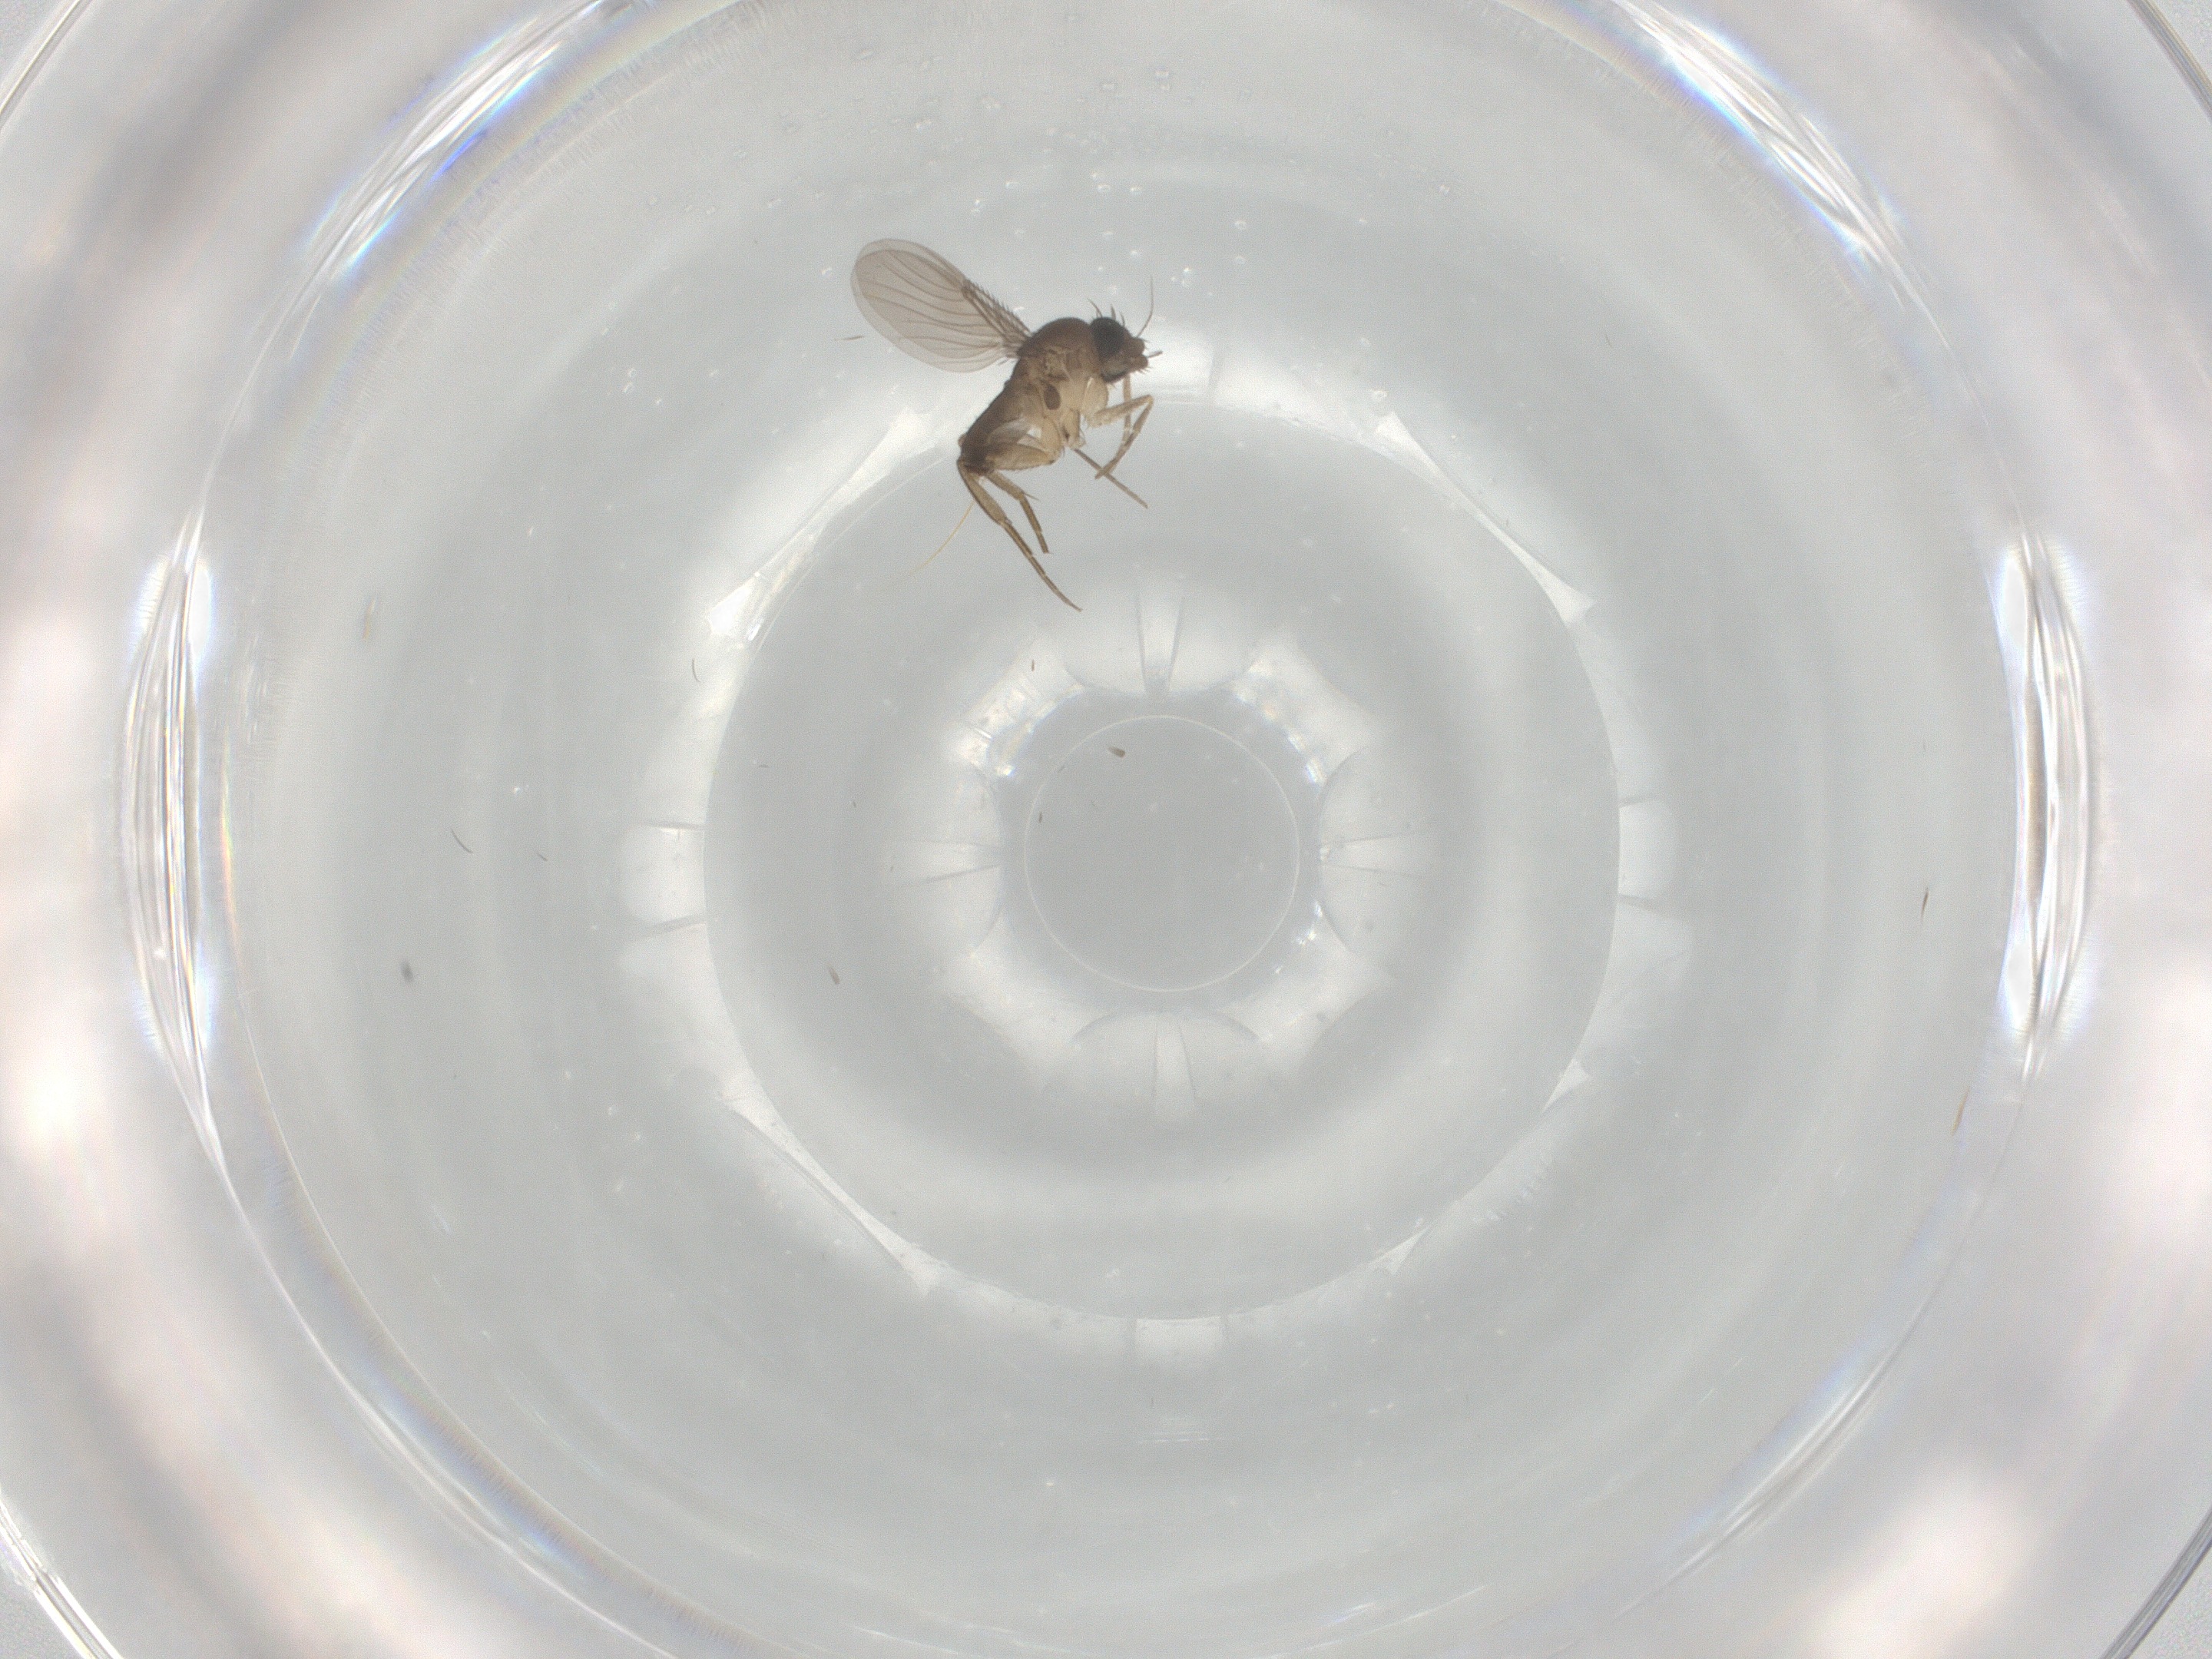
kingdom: Animalia
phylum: Arthropoda
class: Insecta
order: Diptera
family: Phoridae
